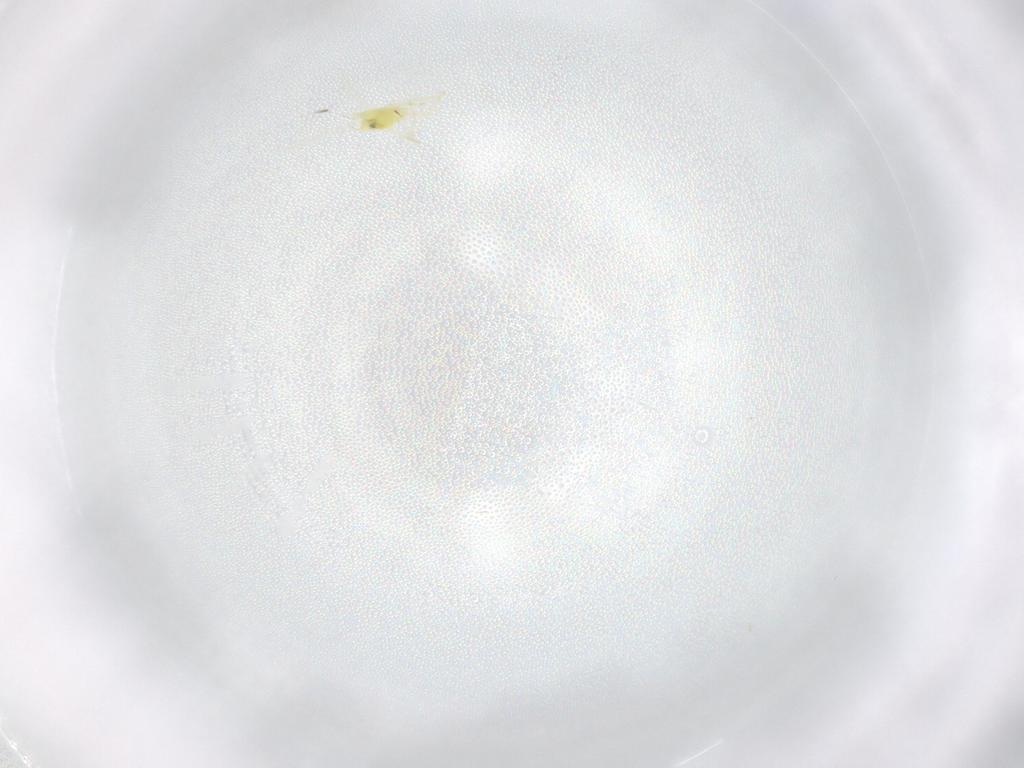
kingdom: Animalia
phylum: Arthropoda
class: Insecta
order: Hemiptera
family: Aleyrodidae
